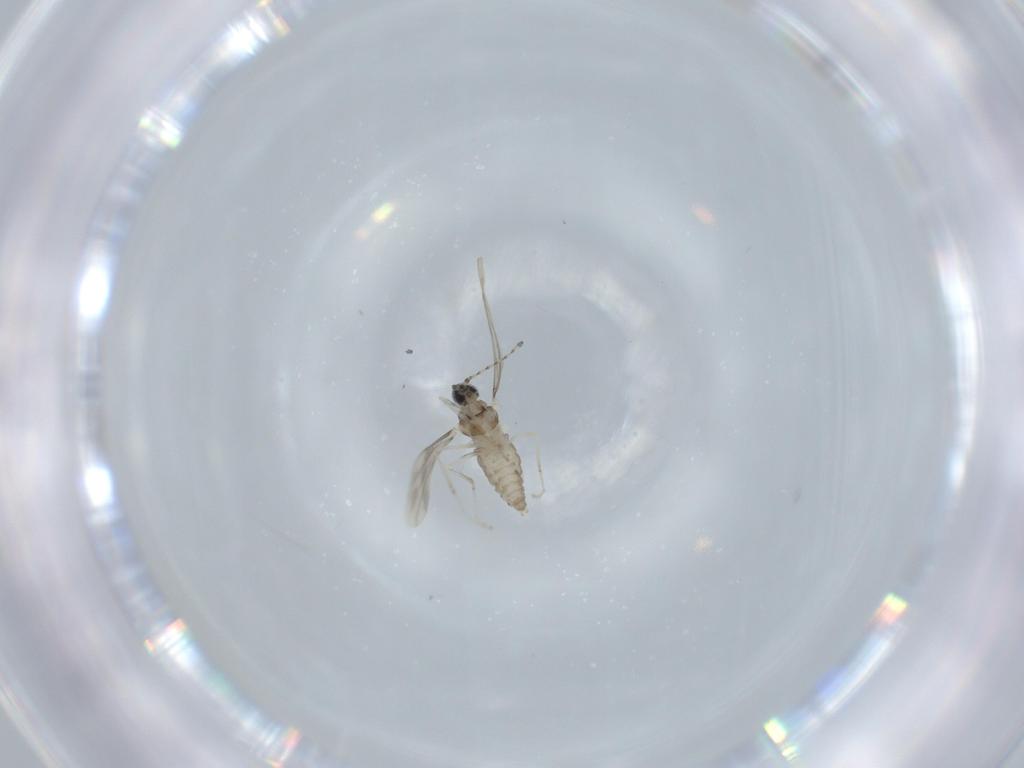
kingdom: Animalia
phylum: Arthropoda
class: Insecta
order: Diptera
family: Cecidomyiidae
